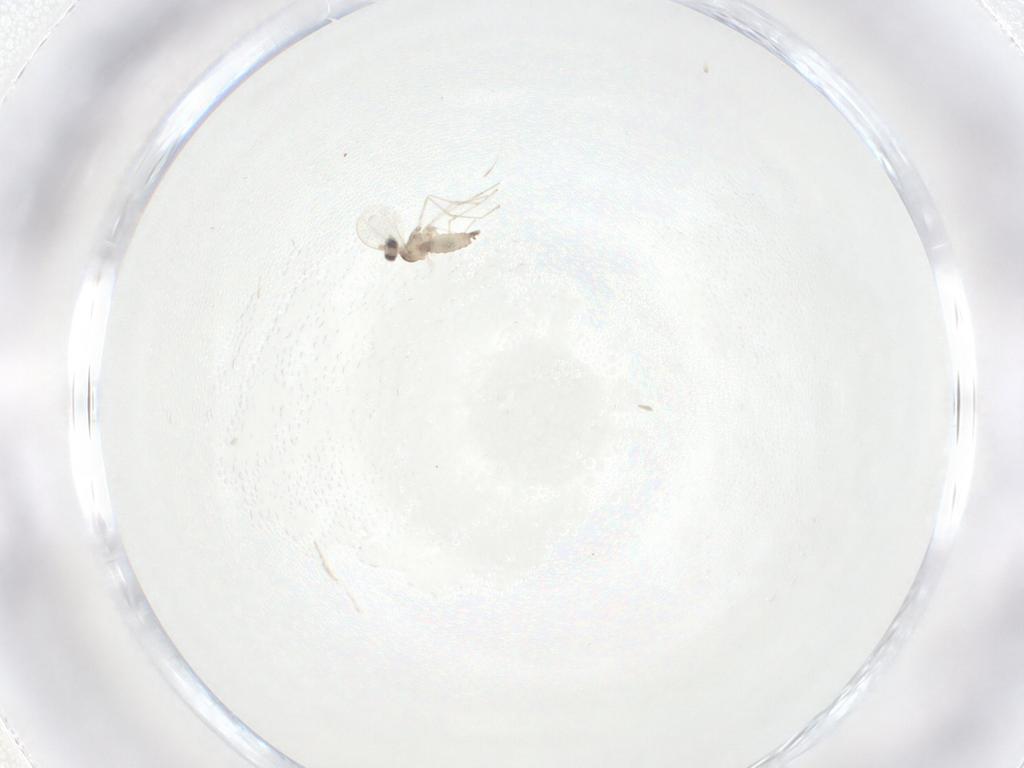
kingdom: Animalia
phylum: Arthropoda
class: Insecta
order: Diptera
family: Cecidomyiidae
